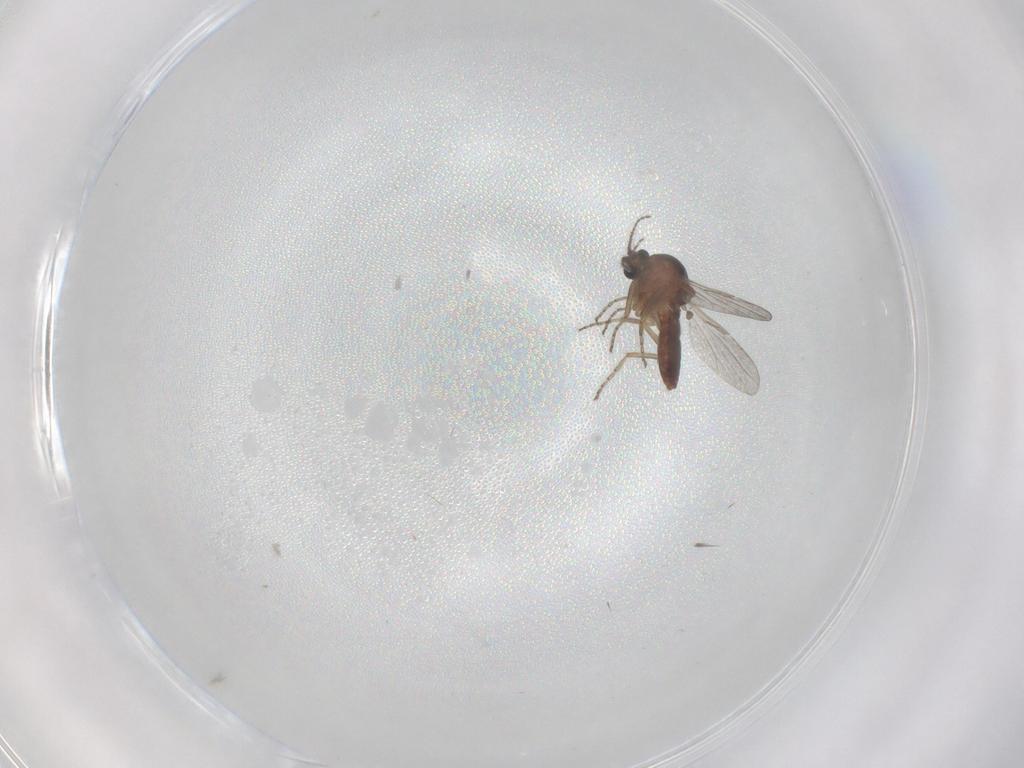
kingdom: Animalia
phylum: Arthropoda
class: Insecta
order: Diptera
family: Ceratopogonidae
